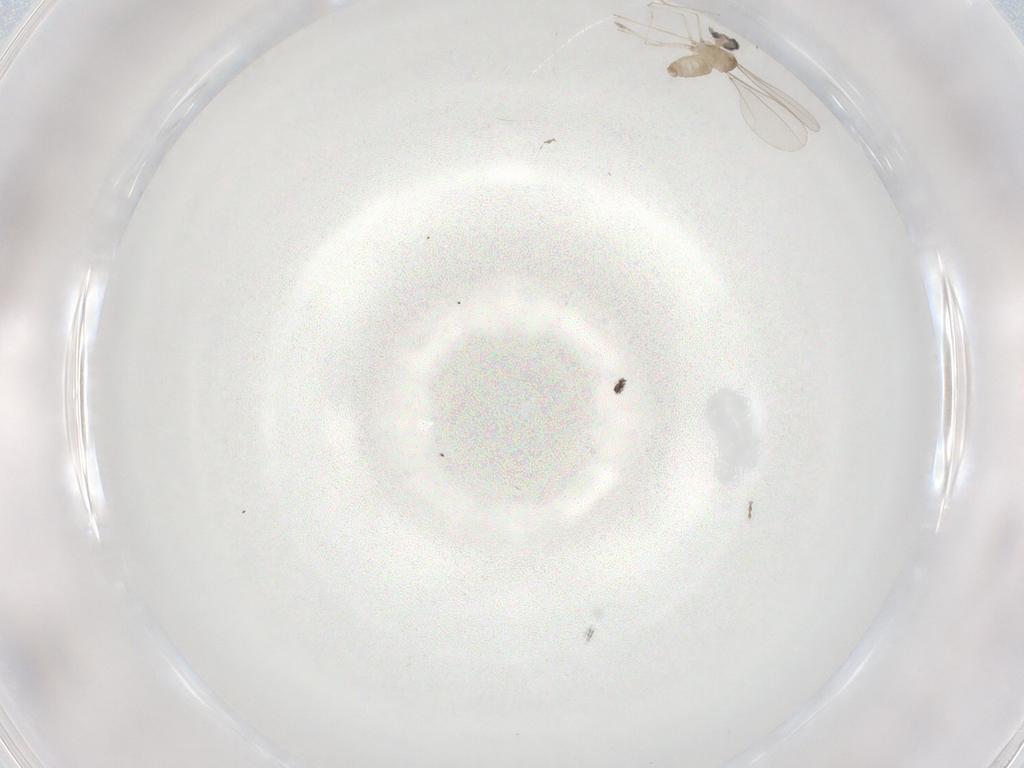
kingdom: Animalia
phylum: Arthropoda
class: Insecta
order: Diptera
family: Cecidomyiidae
